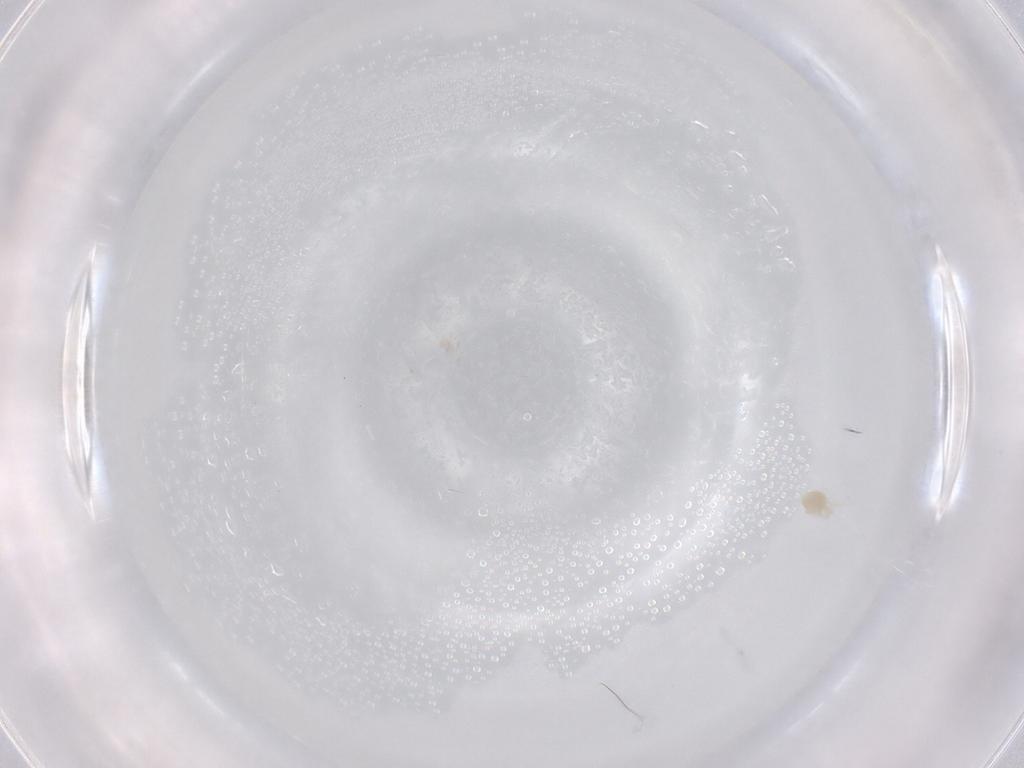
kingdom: Animalia
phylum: Arthropoda
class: Arachnida
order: Trombidiformes
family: Eupodidae
